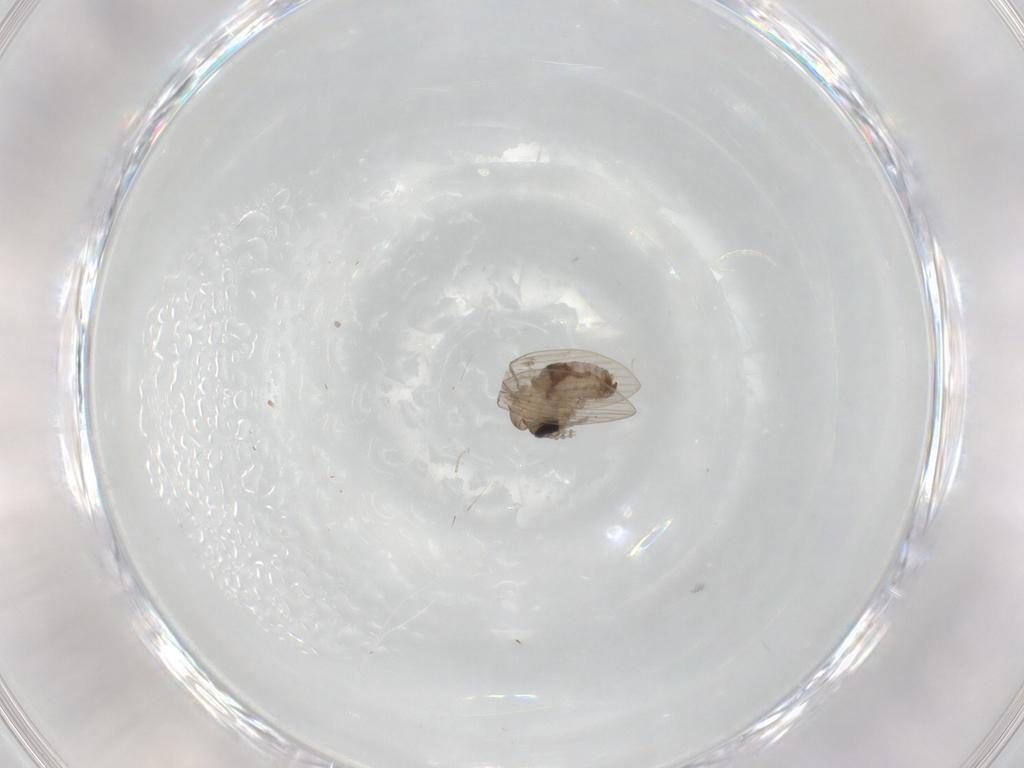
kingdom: Animalia
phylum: Arthropoda
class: Insecta
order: Diptera
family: Psychodidae
